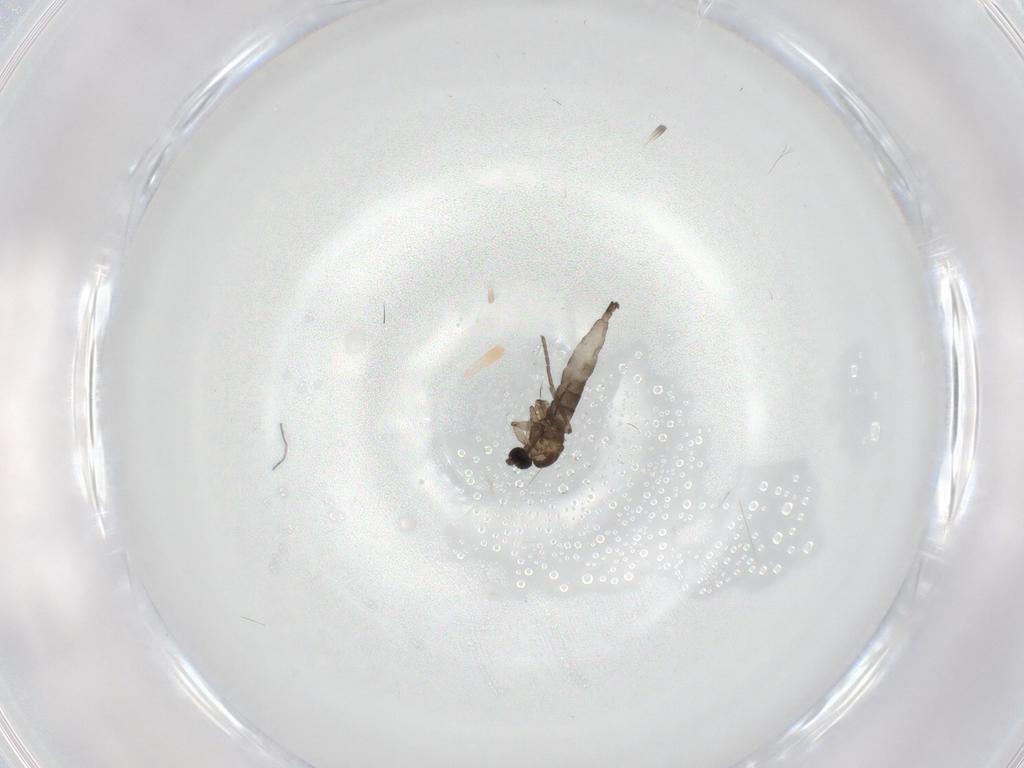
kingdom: Animalia
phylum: Arthropoda
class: Insecta
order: Diptera
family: Sciaridae
